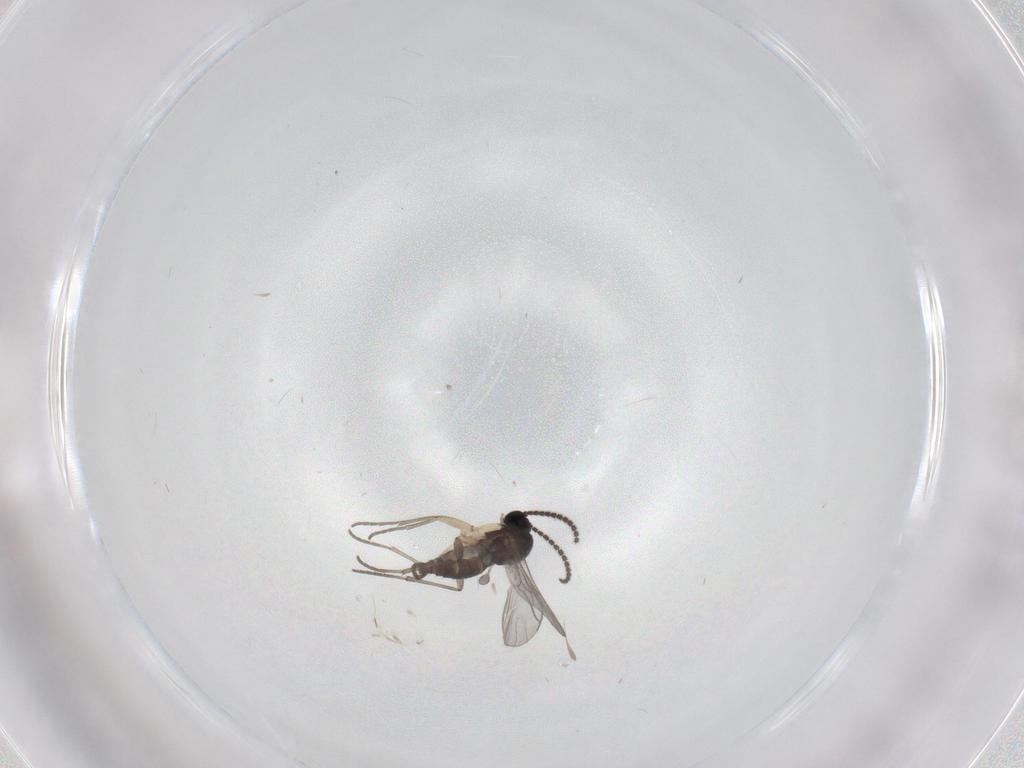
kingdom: Animalia
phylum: Arthropoda
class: Insecta
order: Diptera
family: Sciaridae
